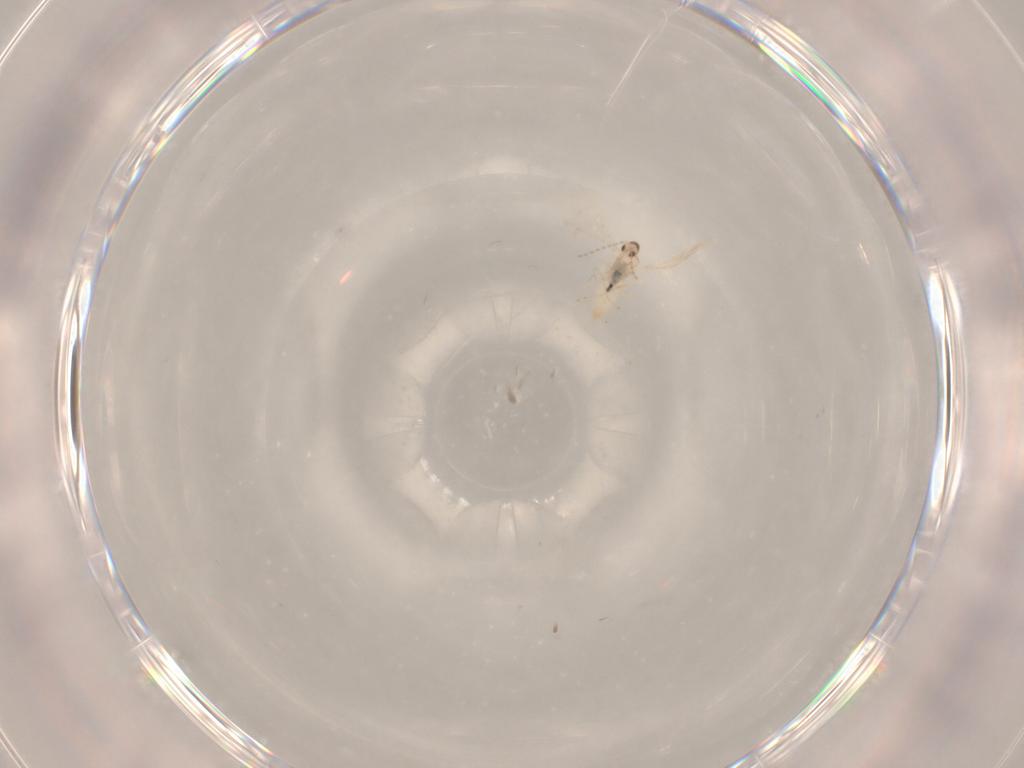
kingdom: Animalia
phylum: Arthropoda
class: Insecta
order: Diptera
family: Cecidomyiidae
